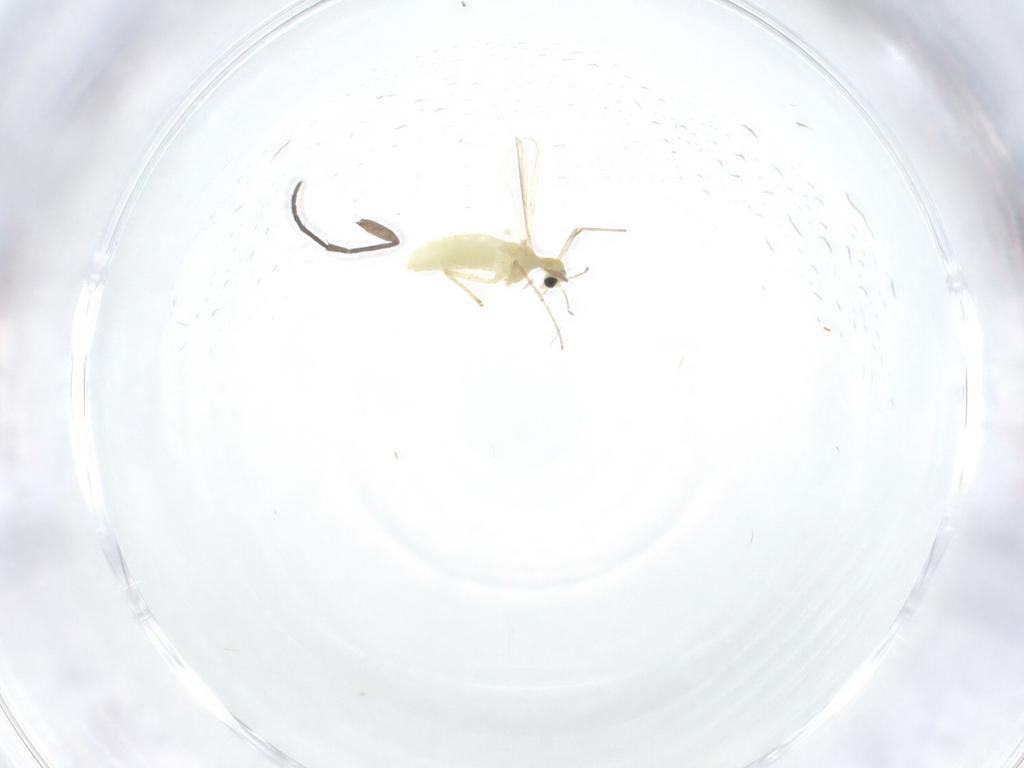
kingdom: Animalia
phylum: Arthropoda
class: Insecta
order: Diptera
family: Chironomidae
